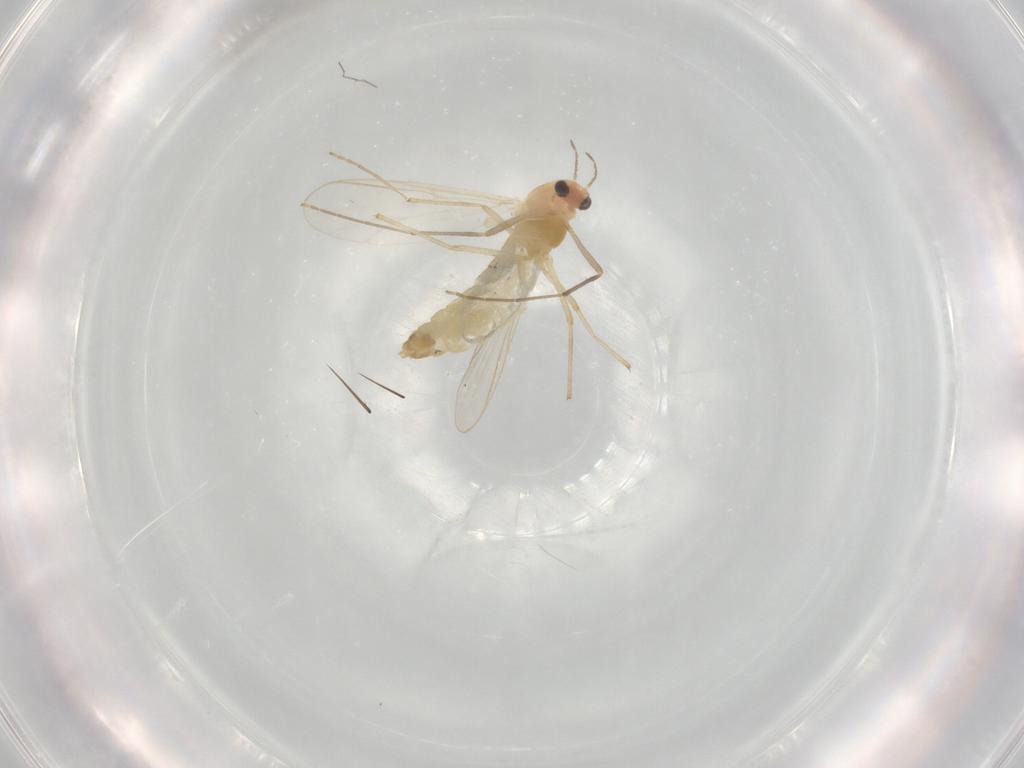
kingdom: Animalia
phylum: Arthropoda
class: Insecta
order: Diptera
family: Chironomidae
